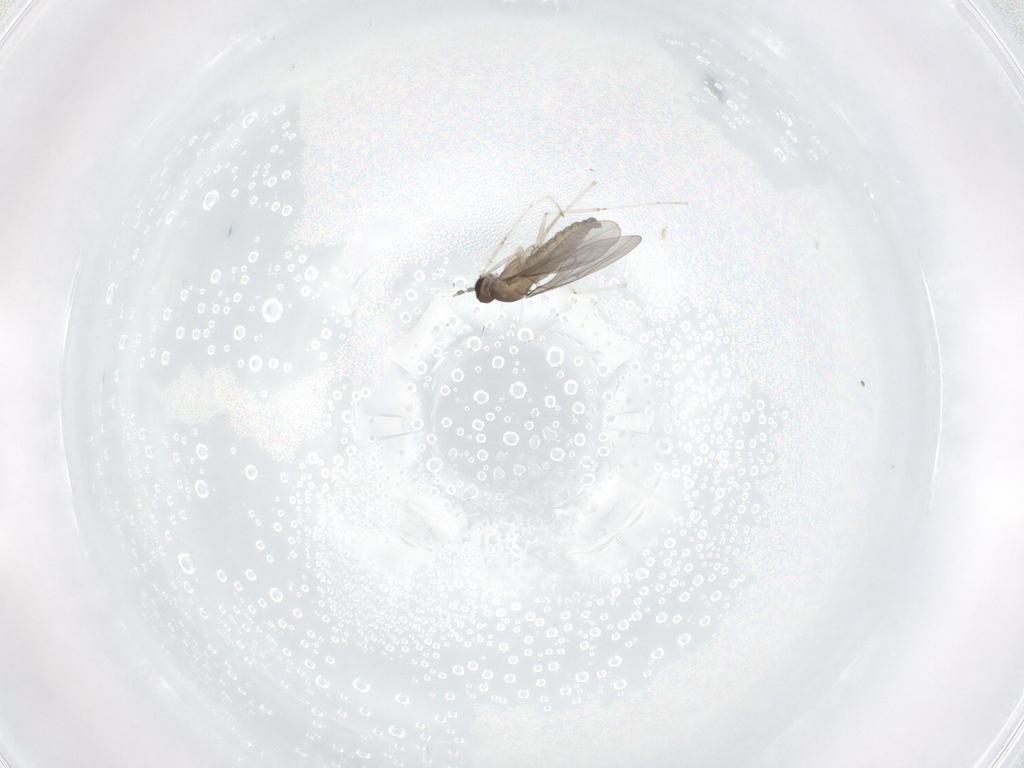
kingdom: Animalia
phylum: Arthropoda
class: Insecta
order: Diptera
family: Cecidomyiidae
